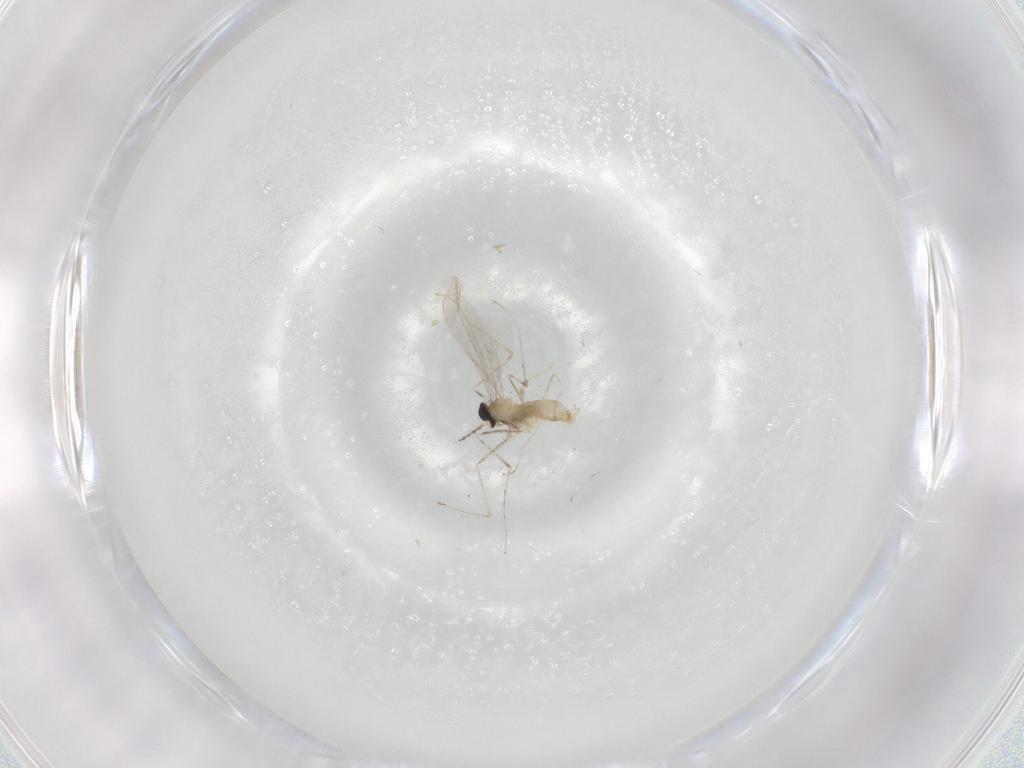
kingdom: Animalia
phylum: Arthropoda
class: Insecta
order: Diptera
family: Cecidomyiidae
